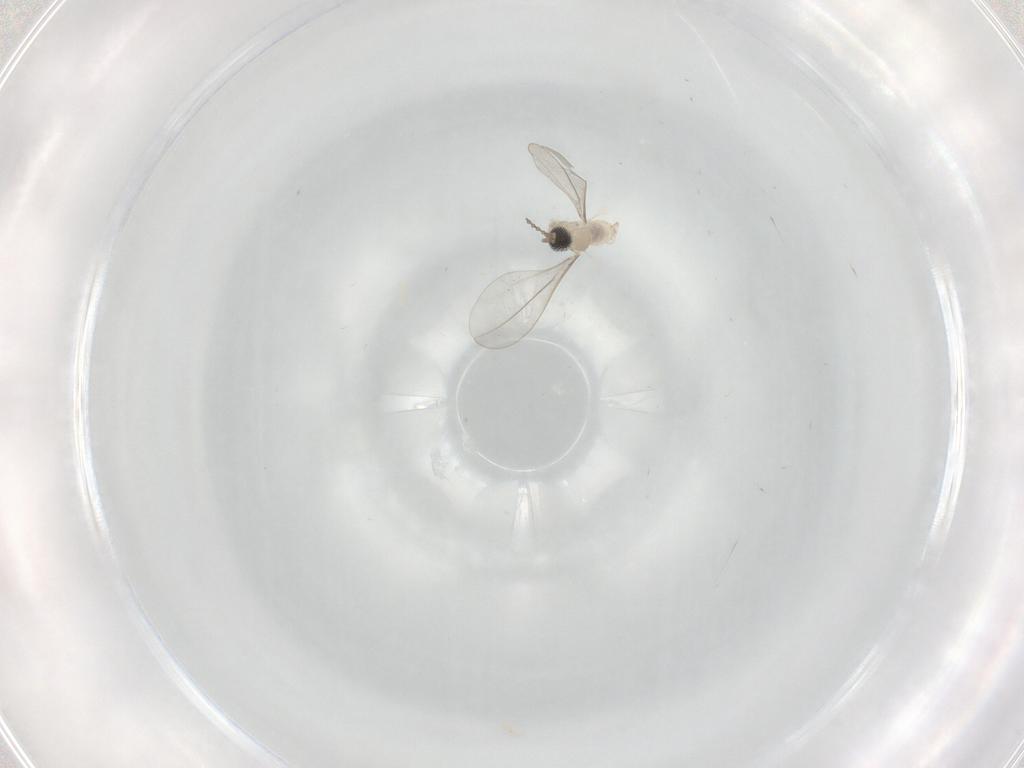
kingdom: Animalia
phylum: Arthropoda
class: Insecta
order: Diptera
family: Cecidomyiidae
